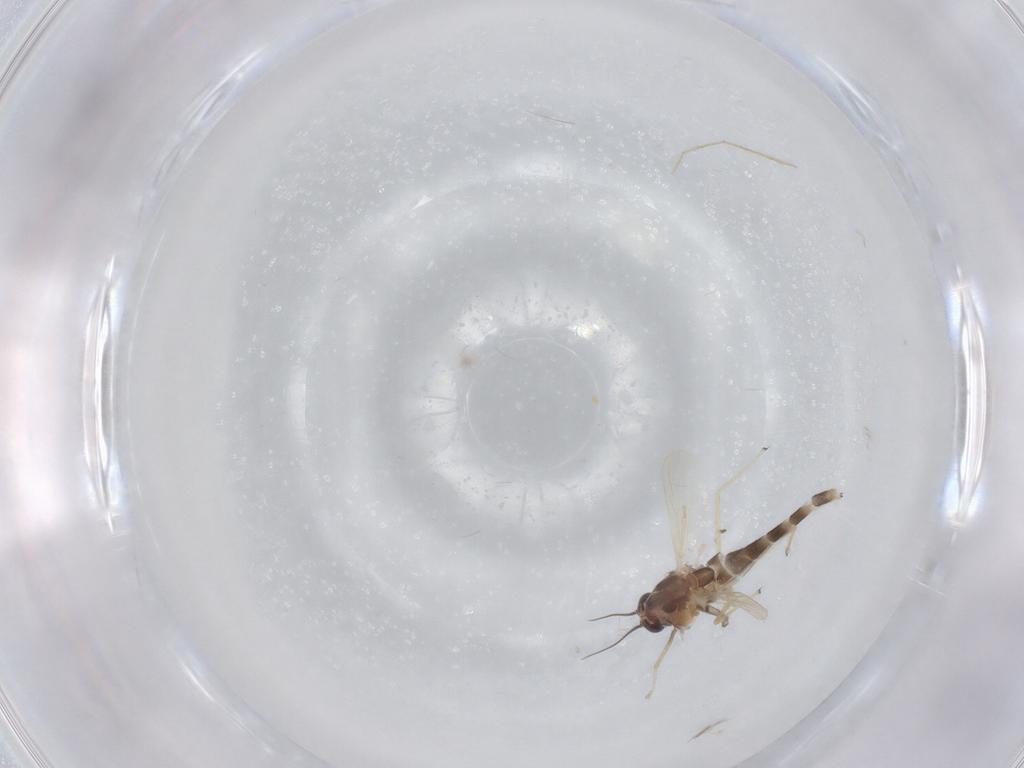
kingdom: Animalia
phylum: Arthropoda
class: Insecta
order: Diptera
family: Chironomidae
